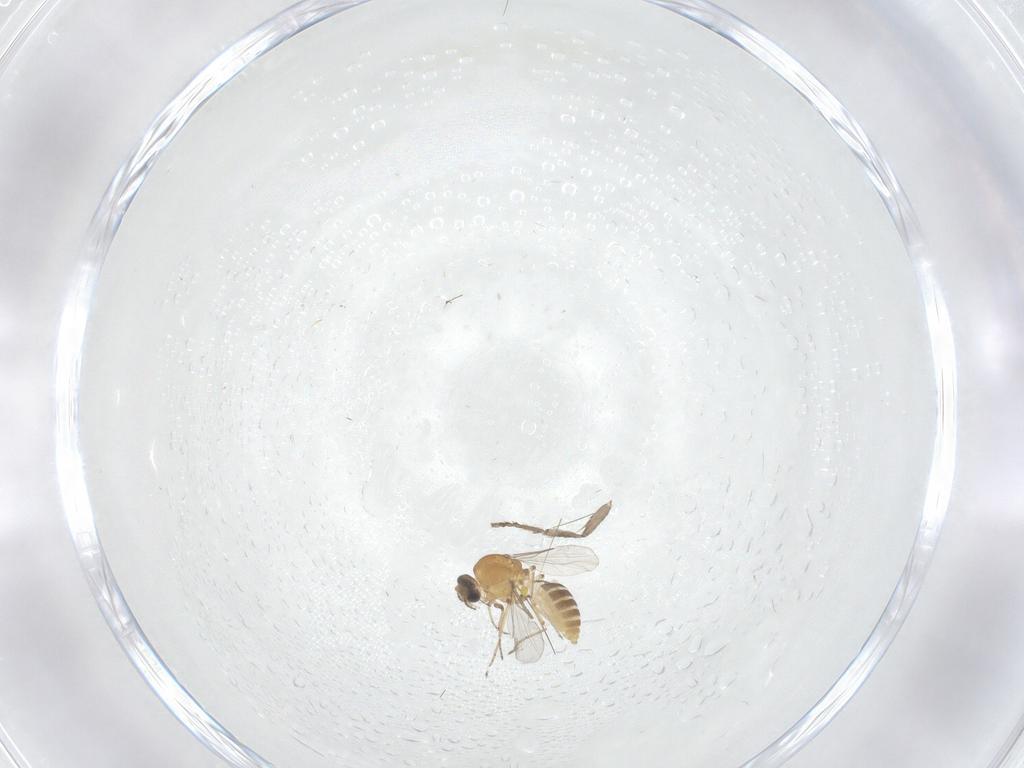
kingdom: Animalia
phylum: Arthropoda
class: Insecta
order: Diptera
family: Ceratopogonidae
